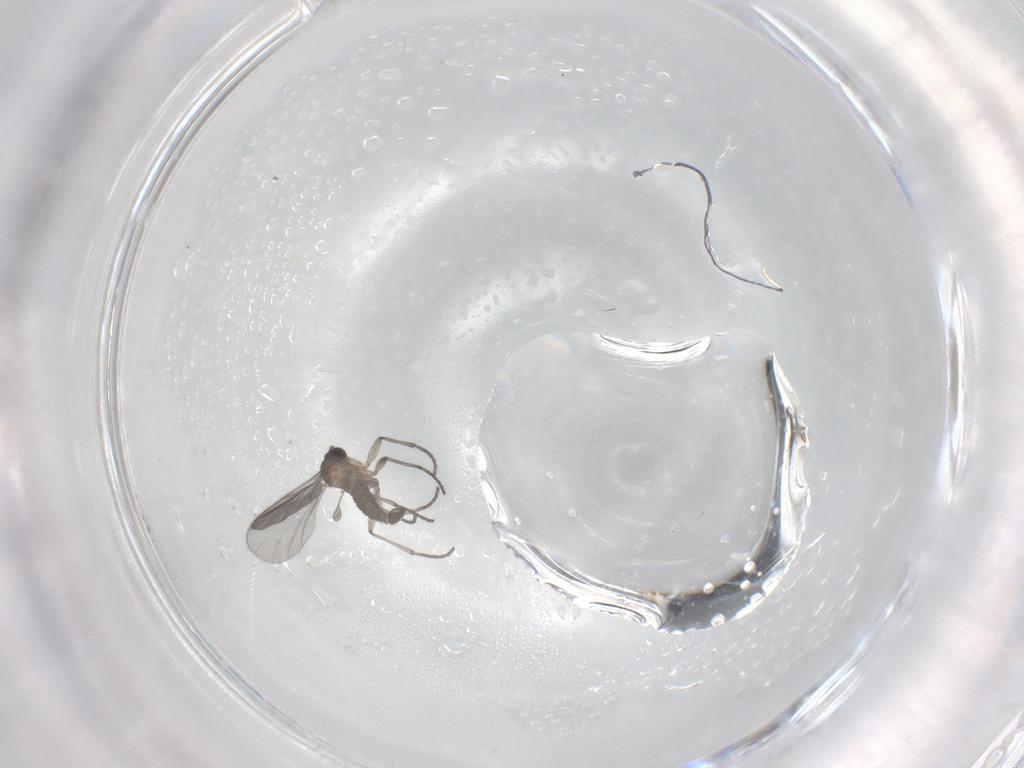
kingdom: Animalia
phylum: Arthropoda
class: Insecta
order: Diptera
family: Sciaridae
